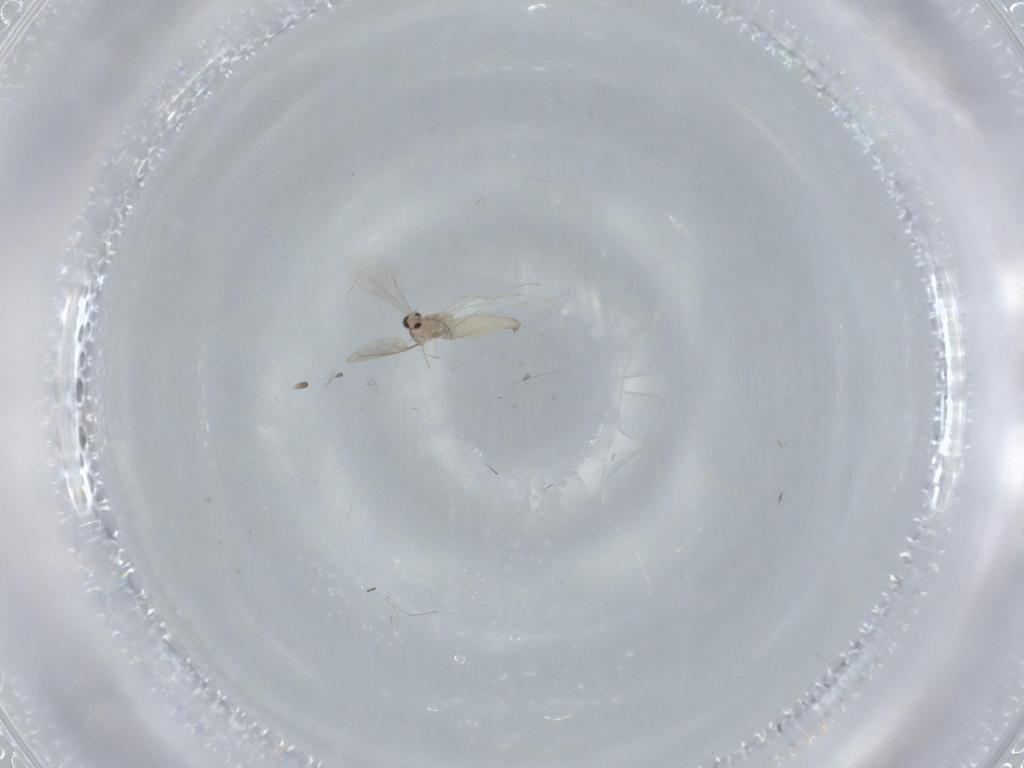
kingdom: Animalia
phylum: Arthropoda
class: Insecta
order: Diptera
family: Cecidomyiidae
